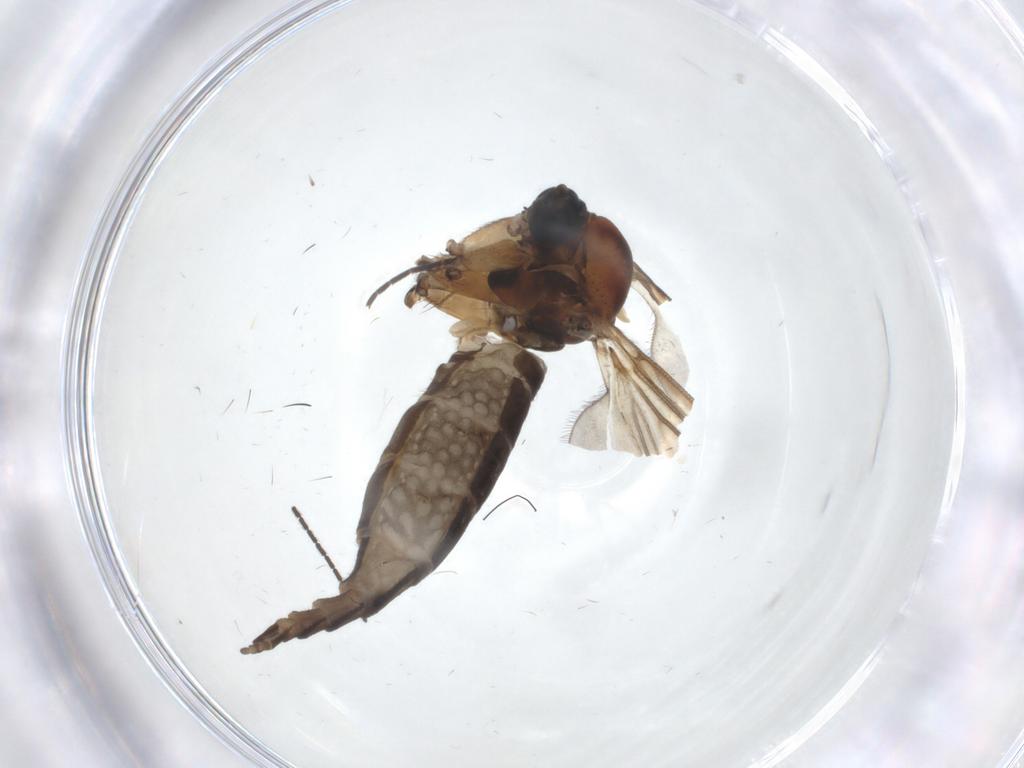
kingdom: Animalia
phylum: Arthropoda
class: Insecta
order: Diptera
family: Sciaridae
